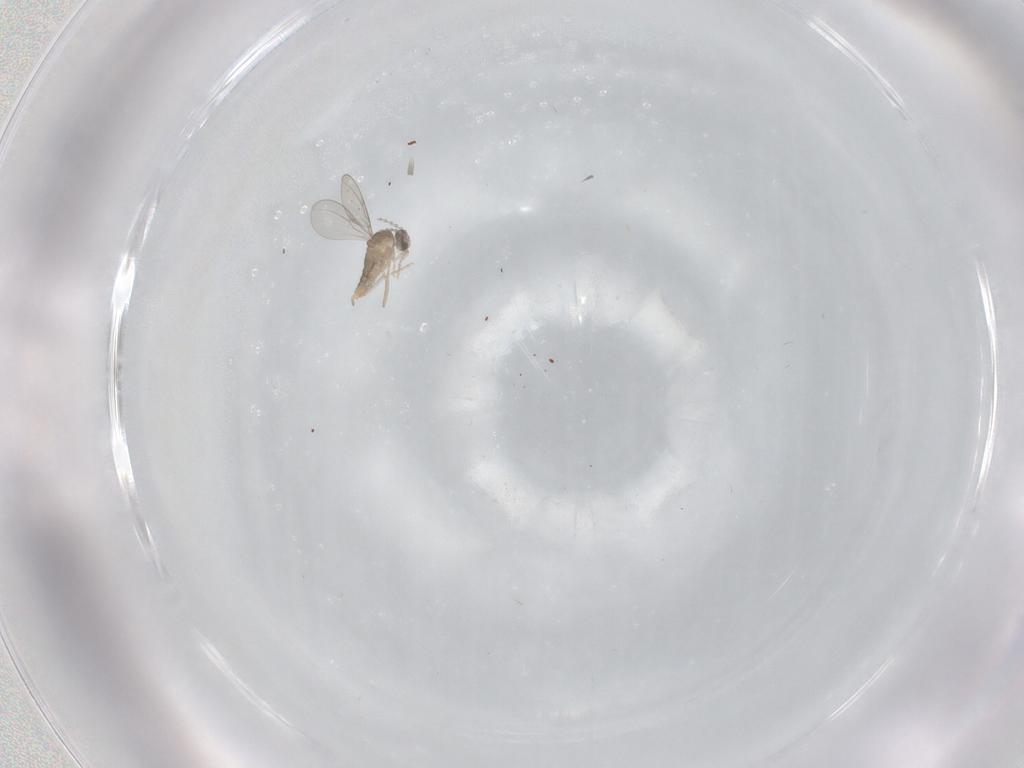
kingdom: Animalia
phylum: Arthropoda
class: Insecta
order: Diptera
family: Cecidomyiidae
